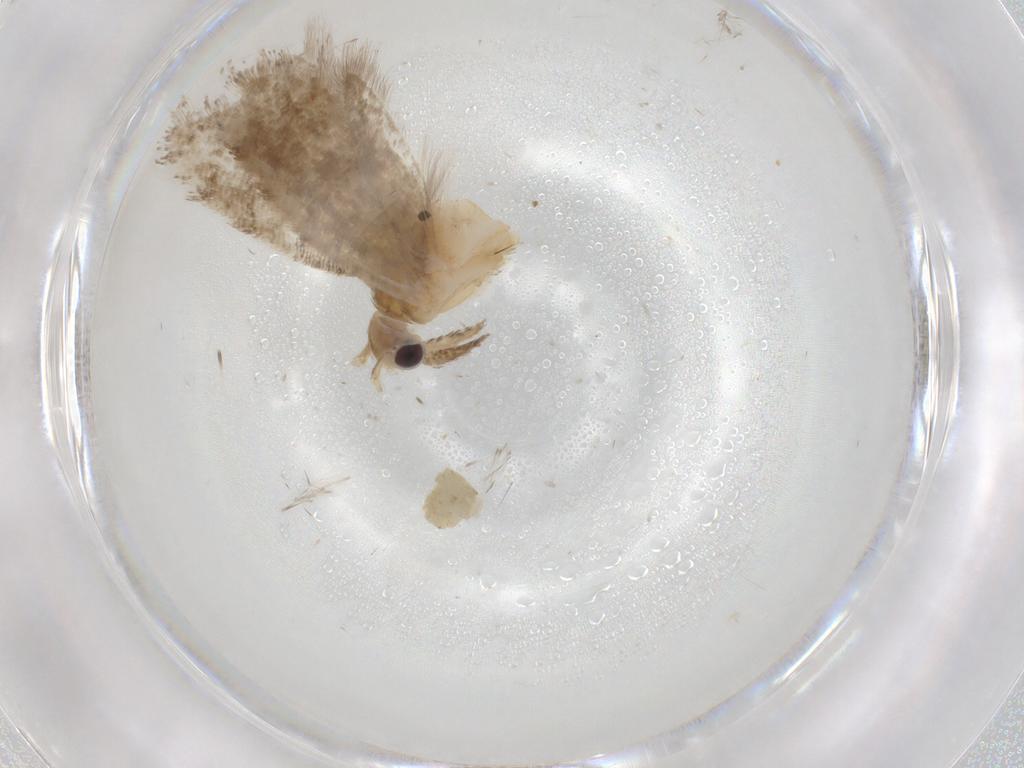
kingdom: Animalia
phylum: Arthropoda
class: Insecta
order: Lepidoptera
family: Plutellidae
